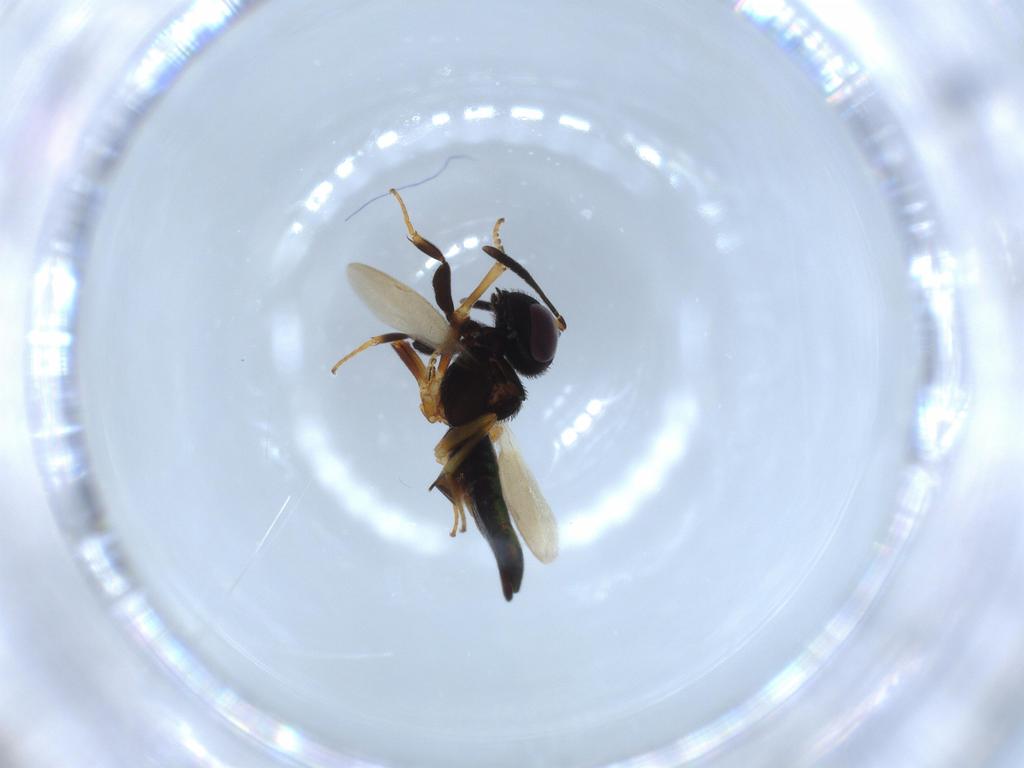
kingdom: Animalia
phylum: Arthropoda
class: Insecta
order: Hymenoptera
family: Eupelmidae
